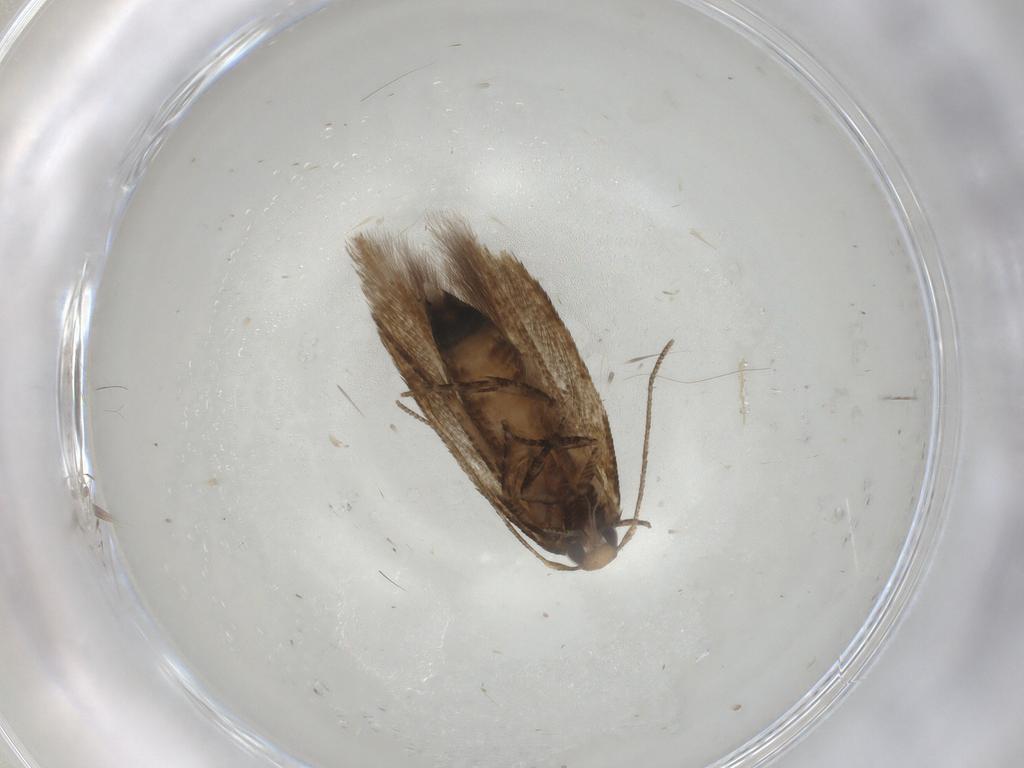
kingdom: Animalia
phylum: Arthropoda
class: Insecta
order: Lepidoptera
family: Cosmopterigidae
